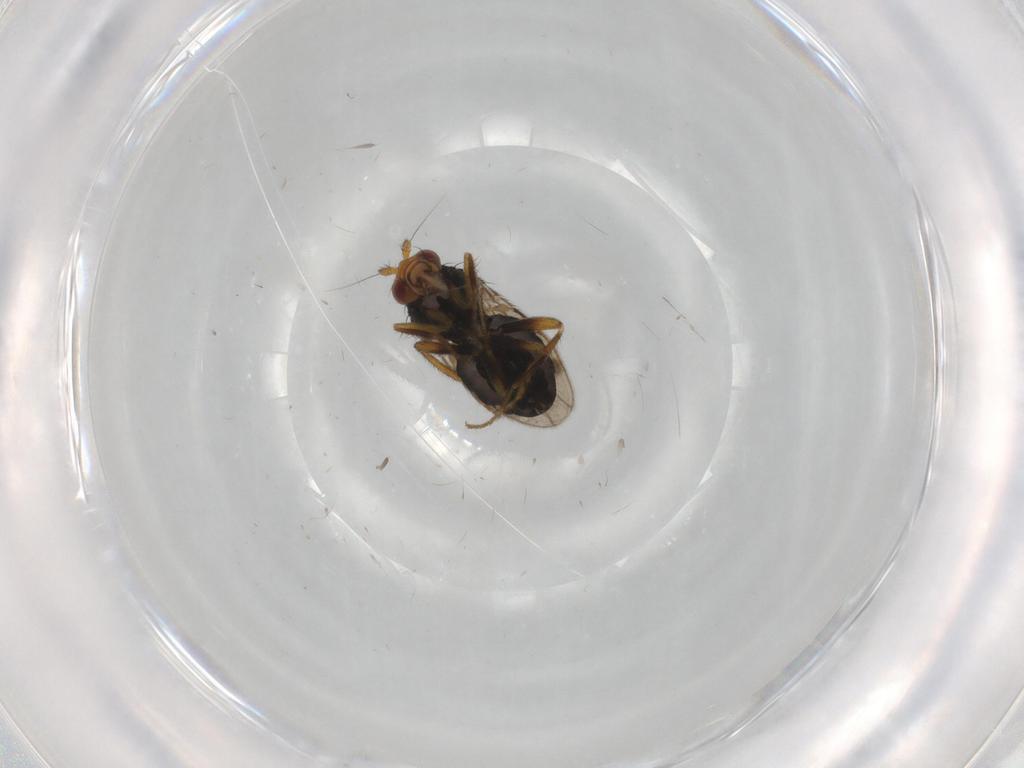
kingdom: Animalia
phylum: Arthropoda
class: Insecta
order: Diptera
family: Sphaeroceridae
